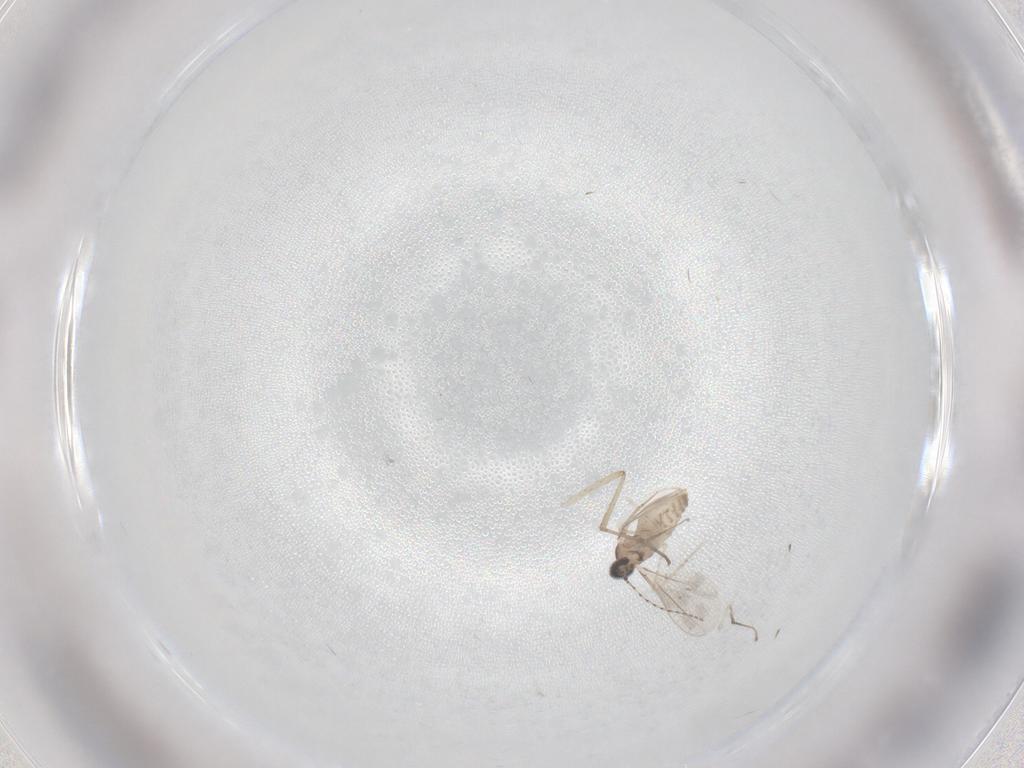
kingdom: Animalia
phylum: Arthropoda
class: Insecta
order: Diptera
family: Cecidomyiidae
